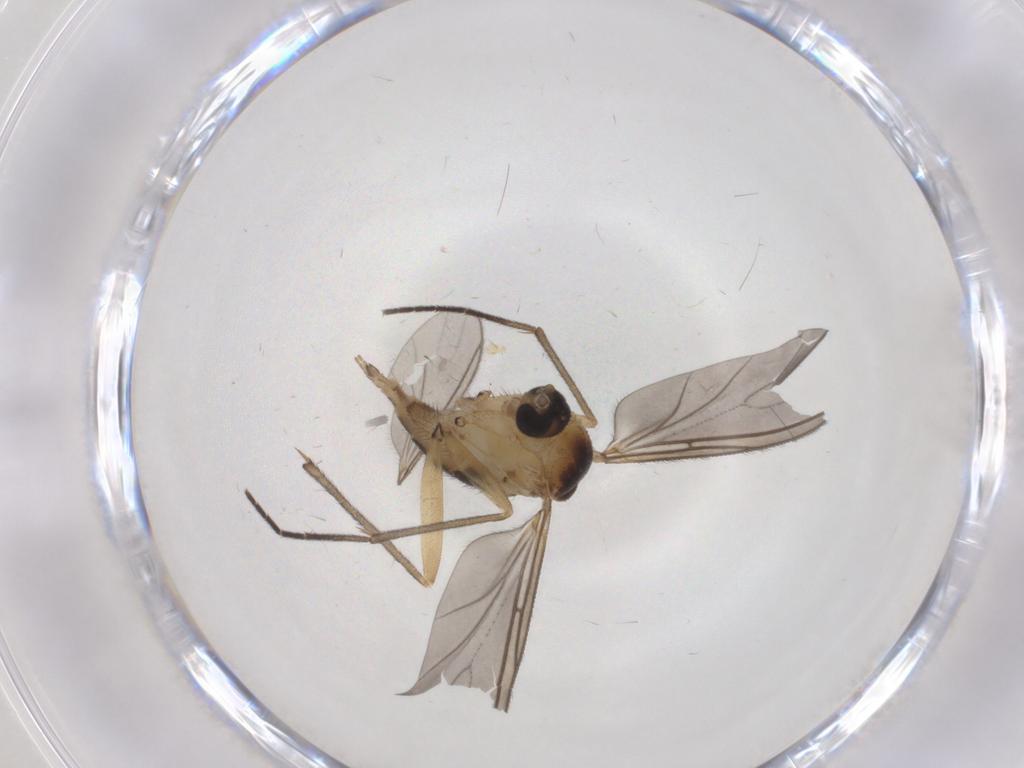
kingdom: Animalia
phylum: Arthropoda
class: Insecta
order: Diptera
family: Sciaridae
